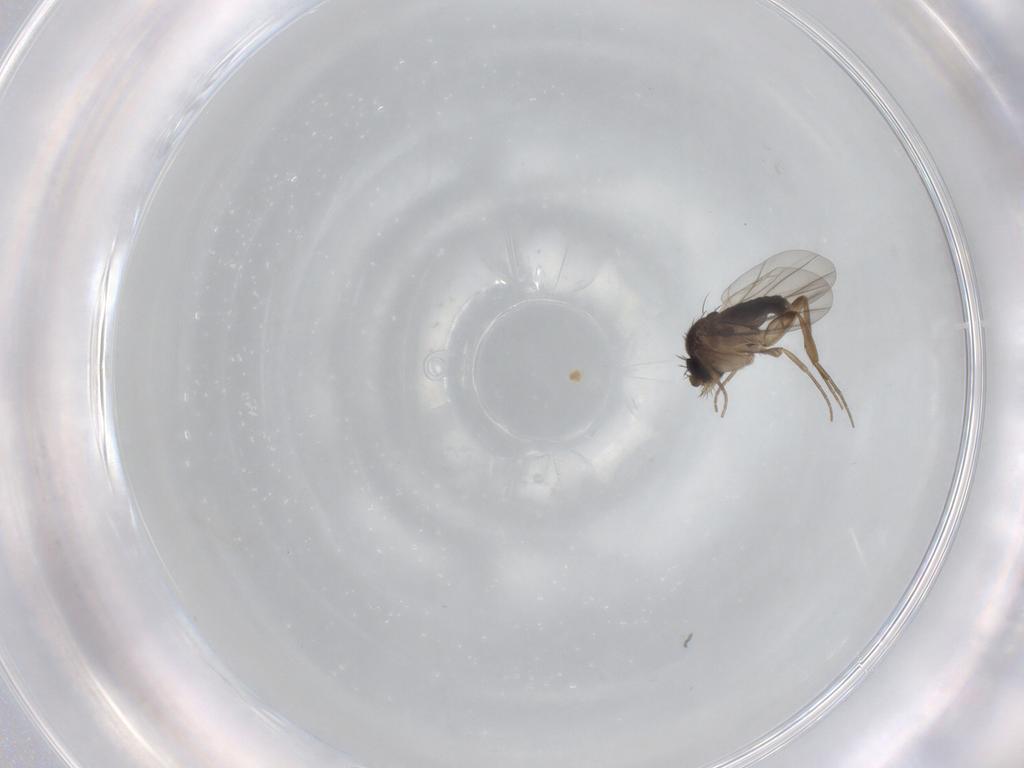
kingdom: Animalia
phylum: Arthropoda
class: Insecta
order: Diptera
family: Phoridae
